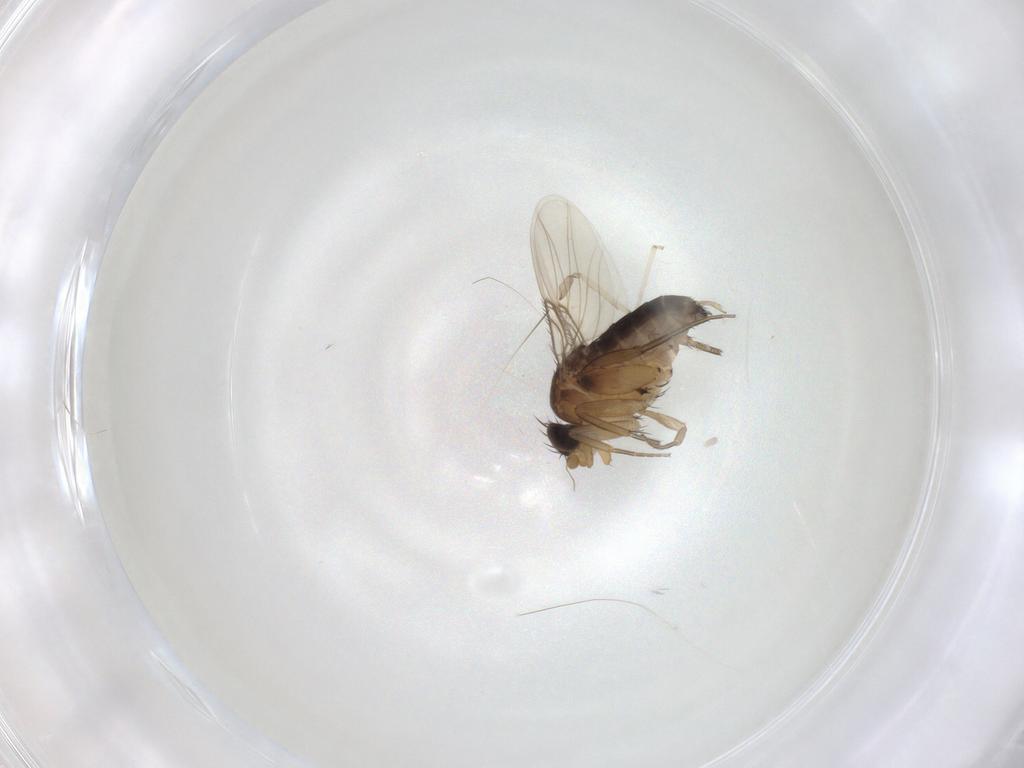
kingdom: Animalia
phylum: Arthropoda
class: Insecta
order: Diptera
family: Cecidomyiidae
